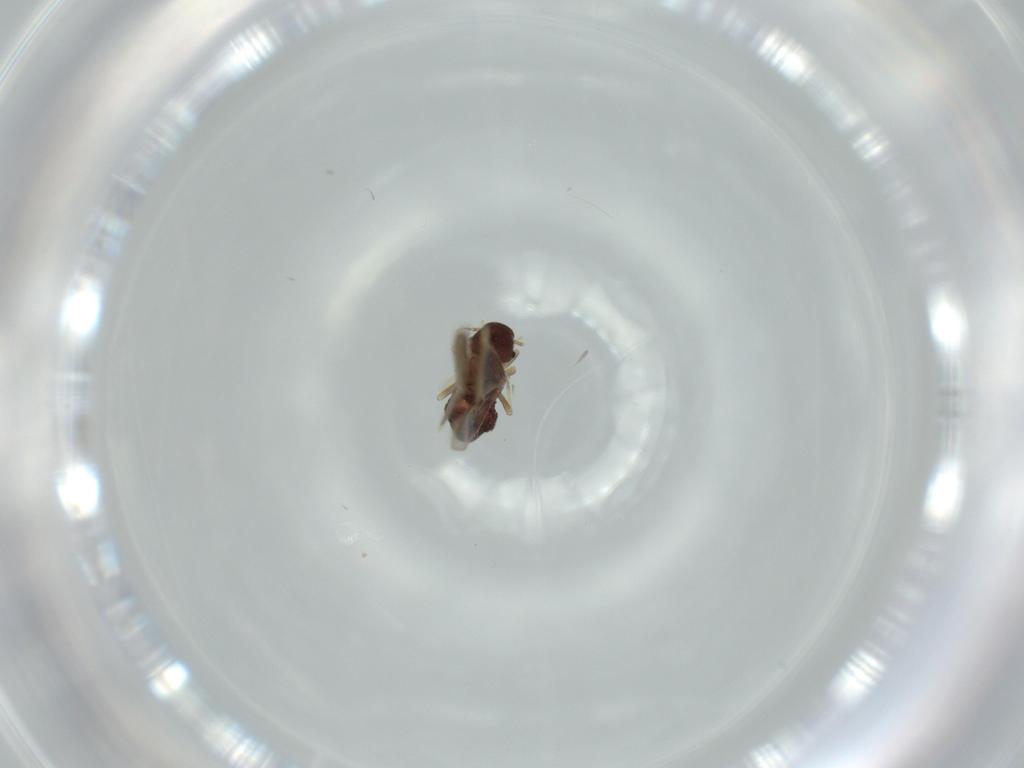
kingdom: Animalia
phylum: Arthropoda
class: Insecta
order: Psocodea
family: Archipsocidae
